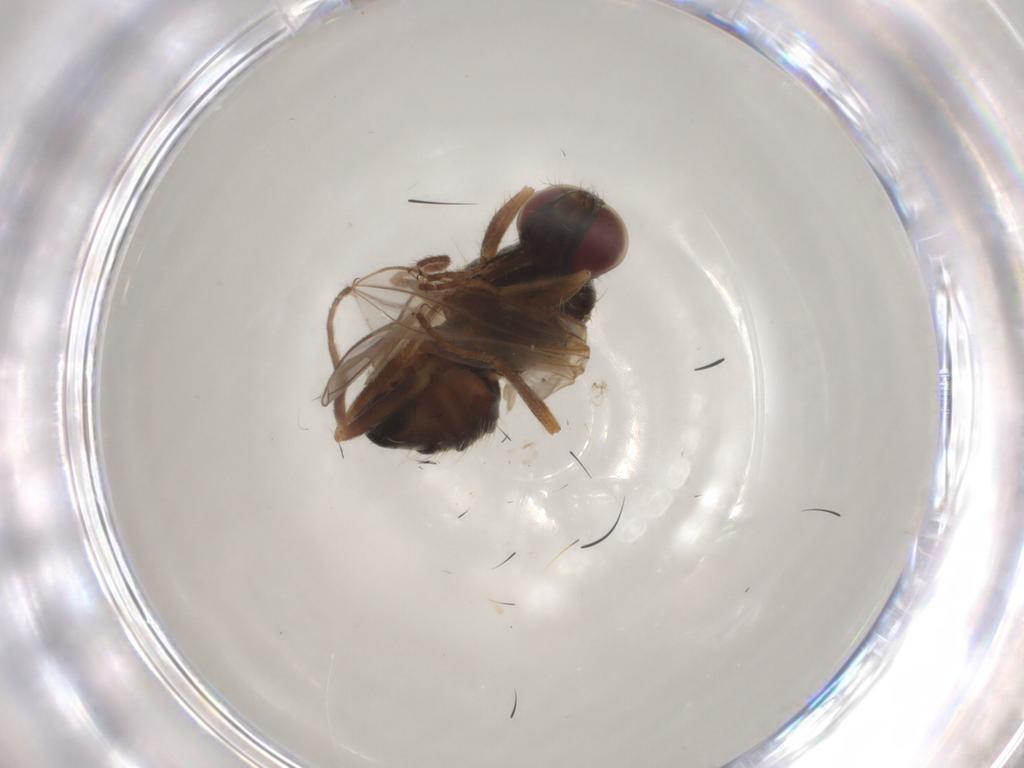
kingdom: Animalia
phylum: Arthropoda
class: Insecta
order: Diptera
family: Muscidae
